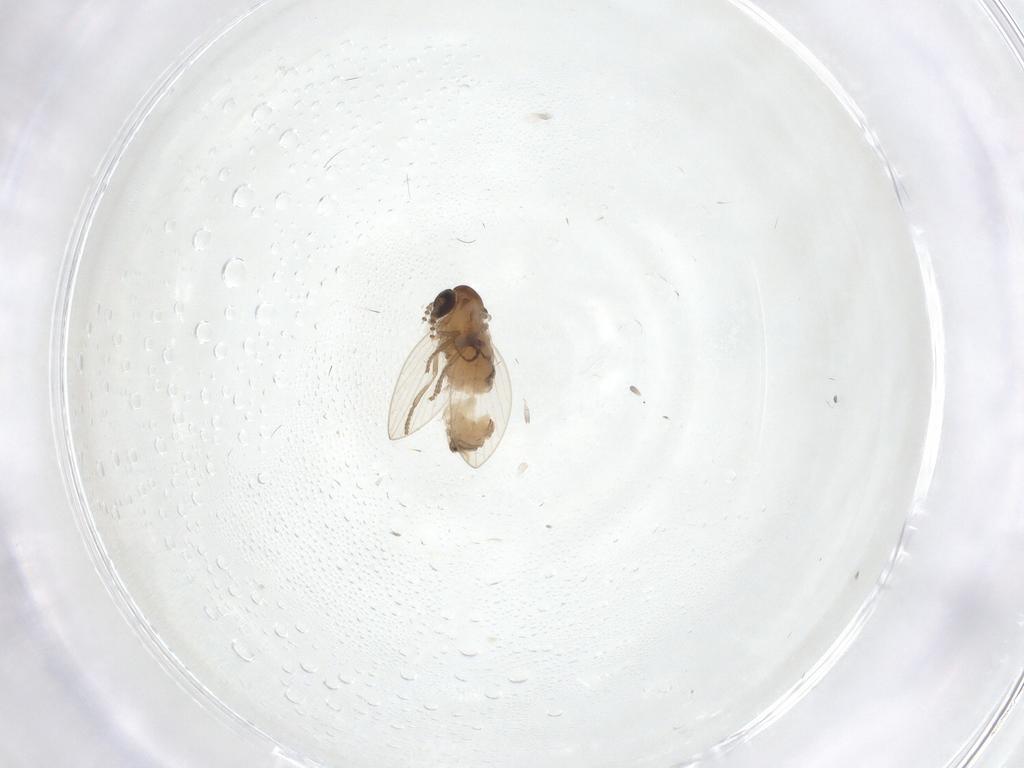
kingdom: Animalia
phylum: Arthropoda
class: Insecta
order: Diptera
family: Psychodidae
